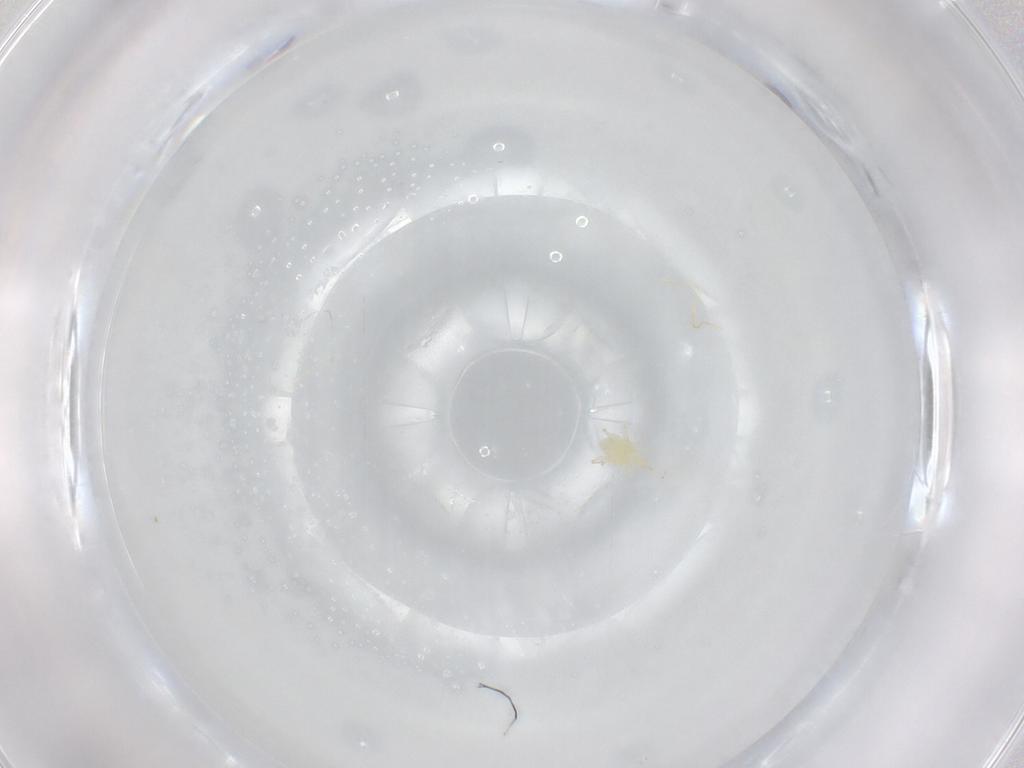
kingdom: Animalia
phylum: Arthropoda
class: Arachnida
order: Trombidiformes
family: Cunaxidae
